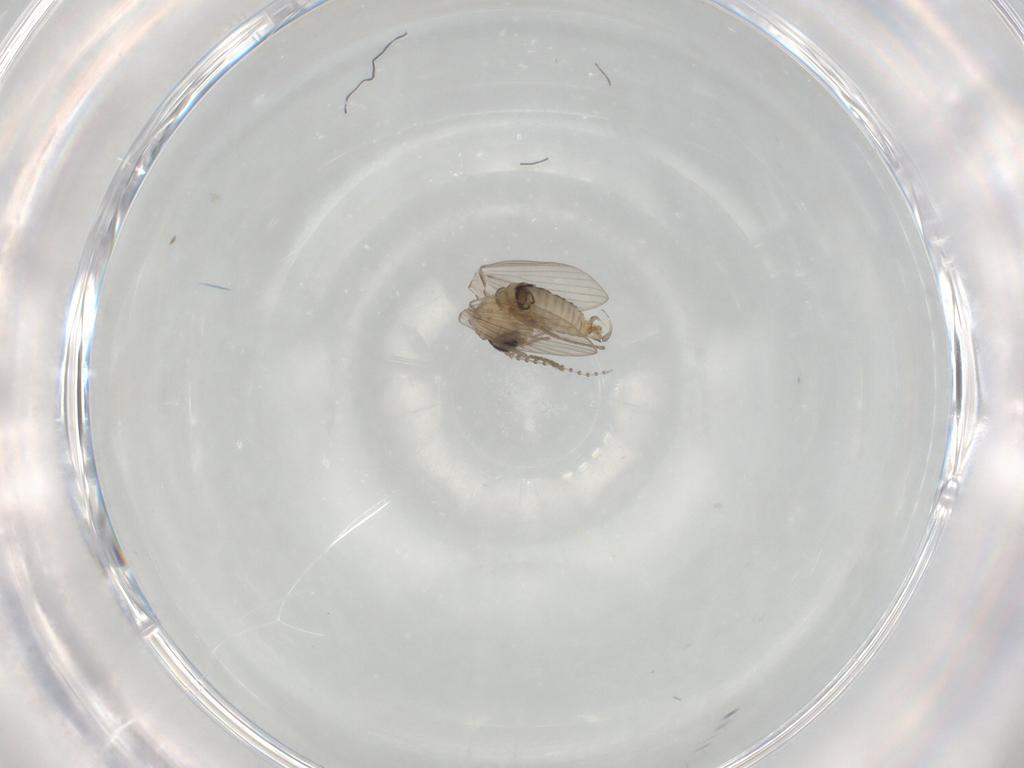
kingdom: Animalia
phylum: Arthropoda
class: Insecta
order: Diptera
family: Psychodidae
